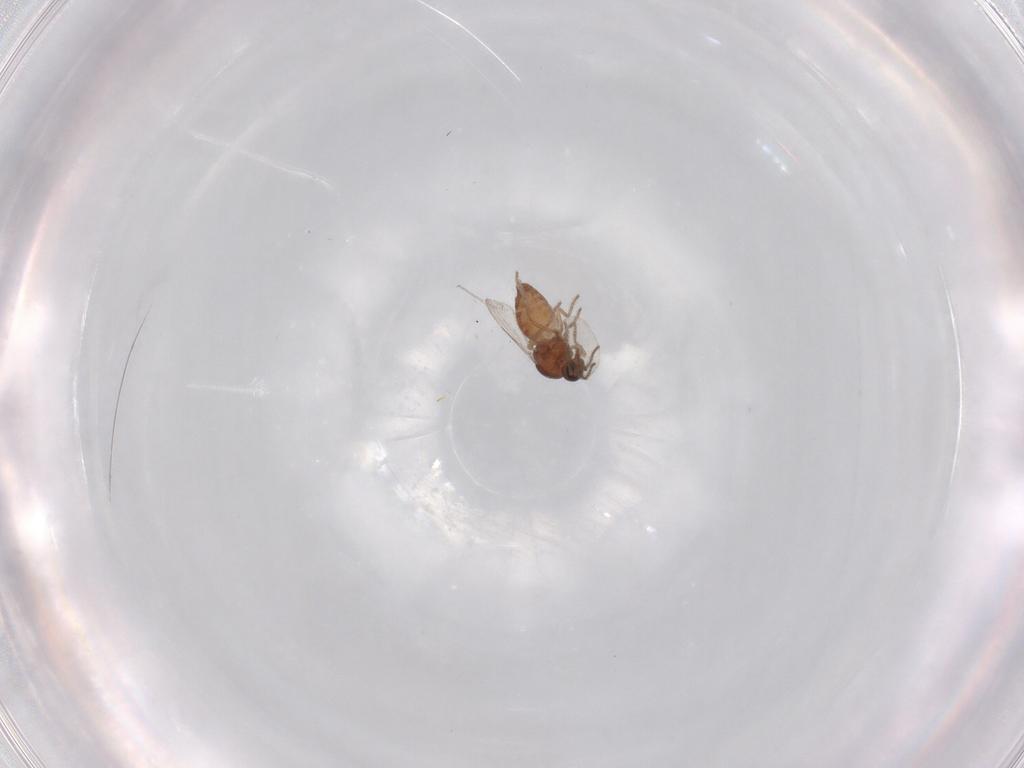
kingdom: Animalia
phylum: Arthropoda
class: Insecta
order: Diptera
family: Ceratopogonidae
